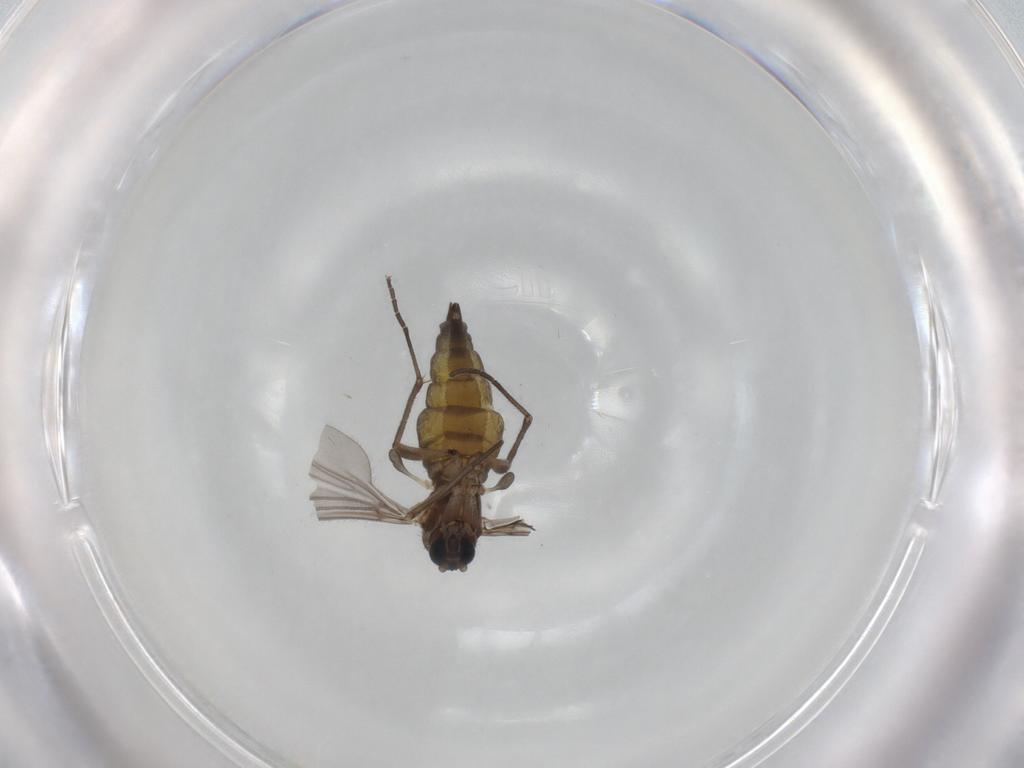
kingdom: Animalia
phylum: Arthropoda
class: Insecta
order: Diptera
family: Sciaridae
